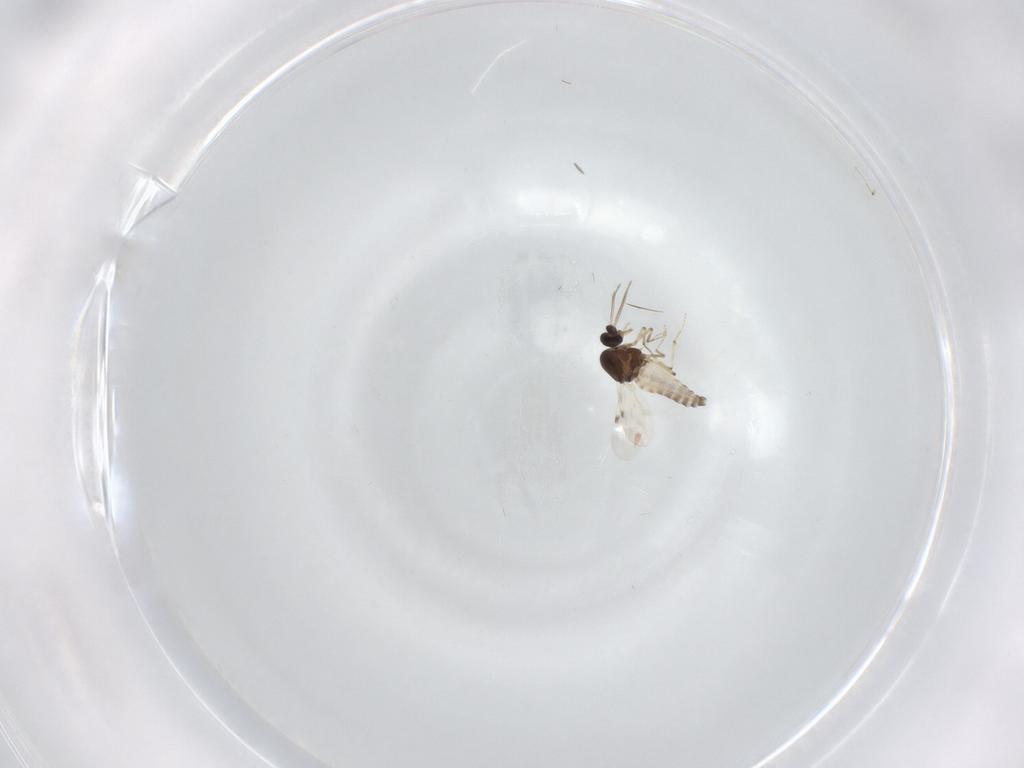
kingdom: Animalia
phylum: Arthropoda
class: Insecta
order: Diptera
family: Cecidomyiidae
